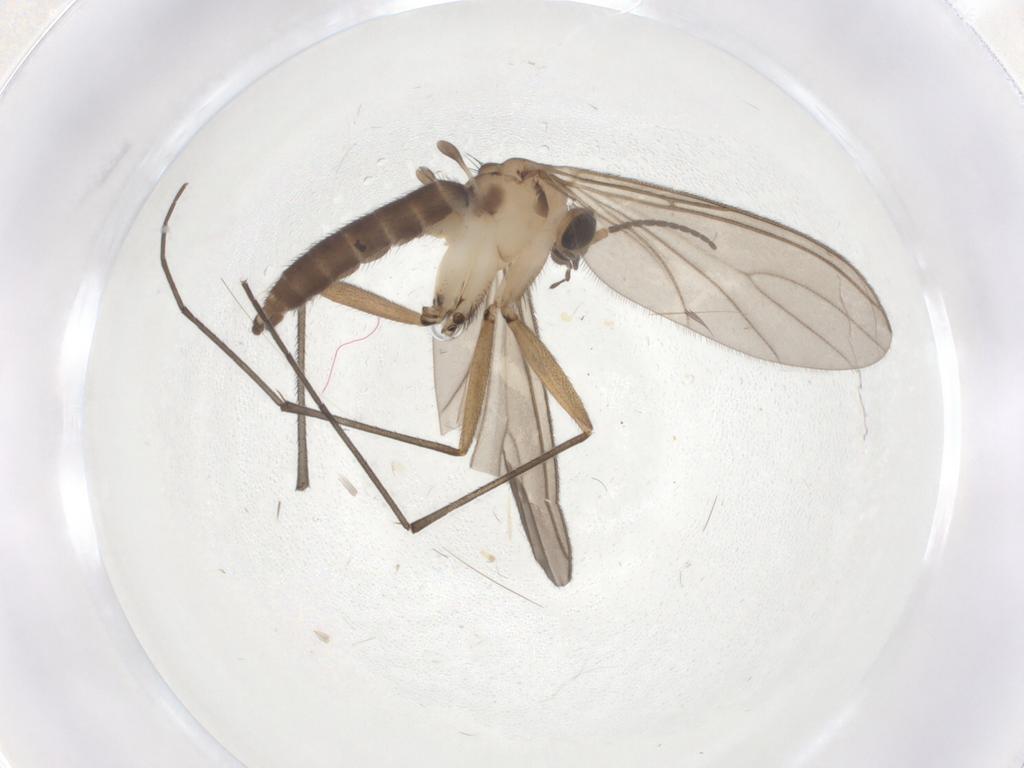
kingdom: Animalia
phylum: Arthropoda
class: Insecta
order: Diptera
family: Sciaridae
